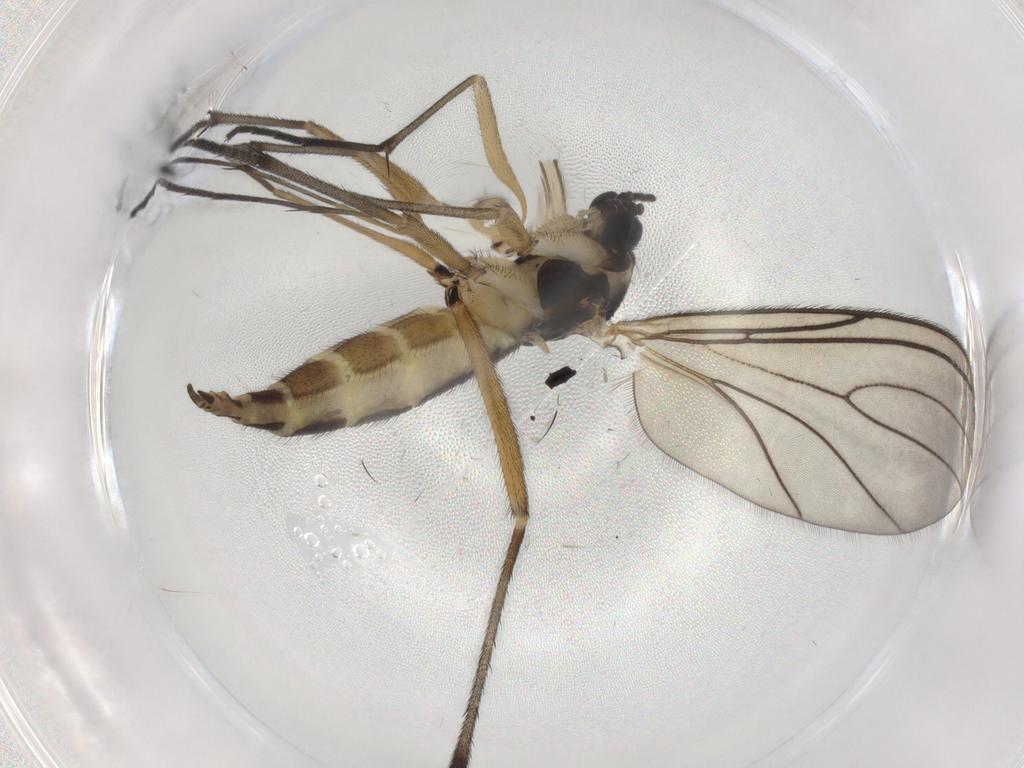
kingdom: Animalia
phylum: Arthropoda
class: Insecta
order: Diptera
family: Sciaridae
